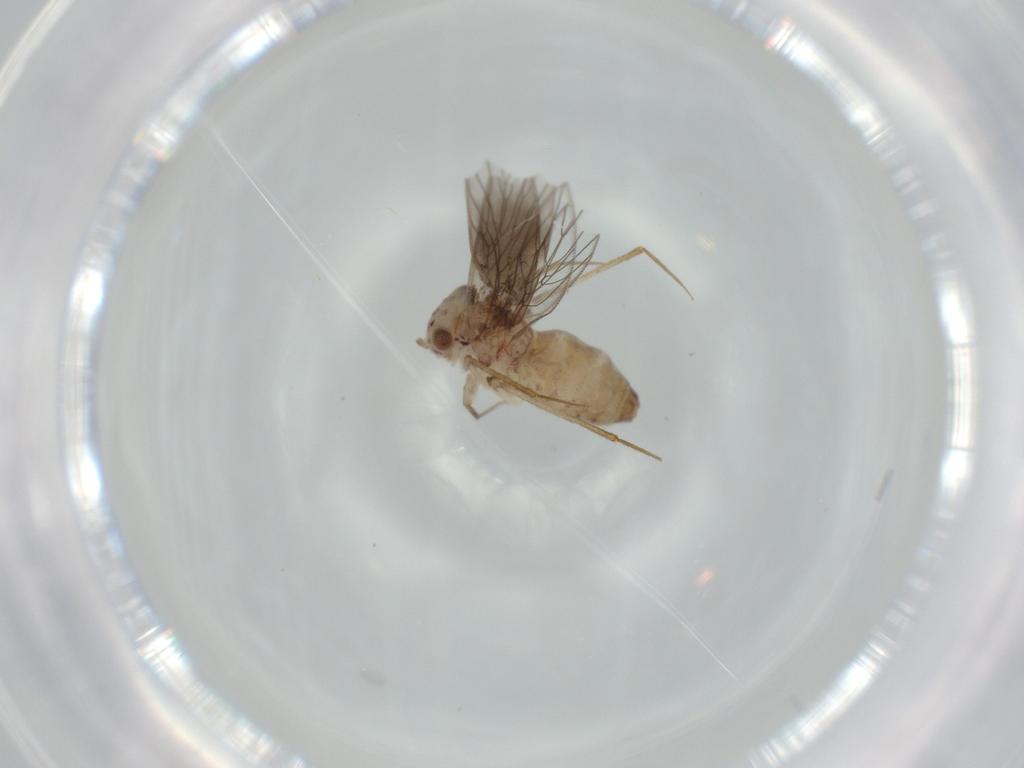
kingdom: Animalia
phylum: Arthropoda
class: Insecta
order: Psocodea
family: Lepidopsocidae
